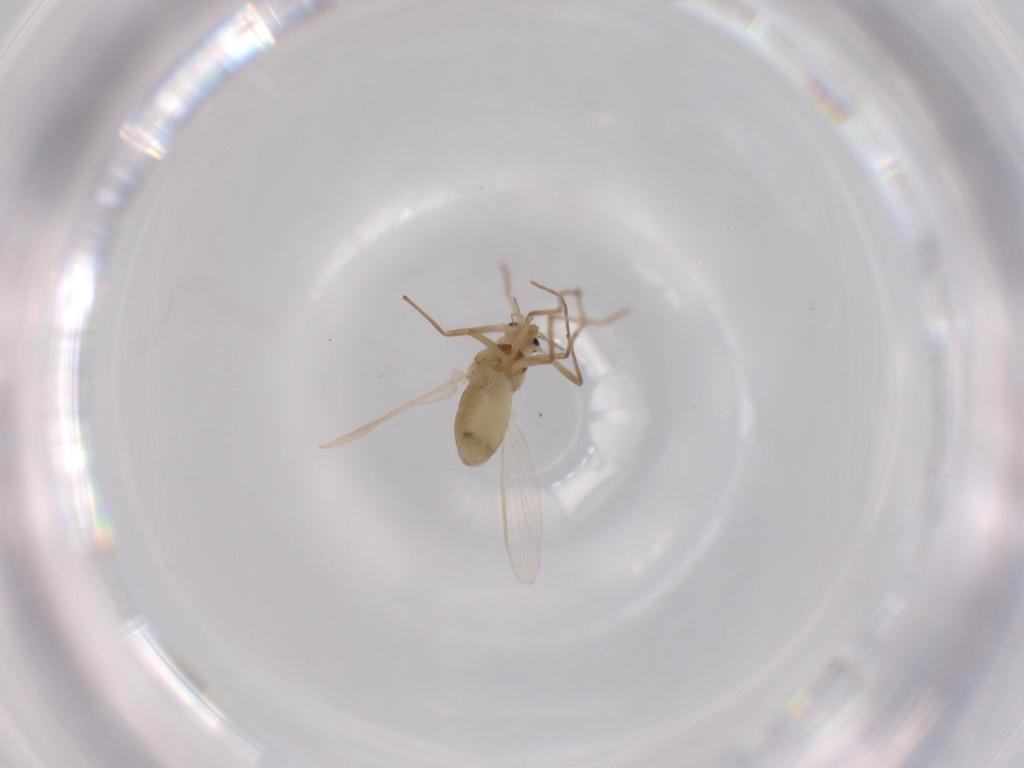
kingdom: Animalia
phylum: Arthropoda
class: Insecta
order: Diptera
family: Chironomidae
